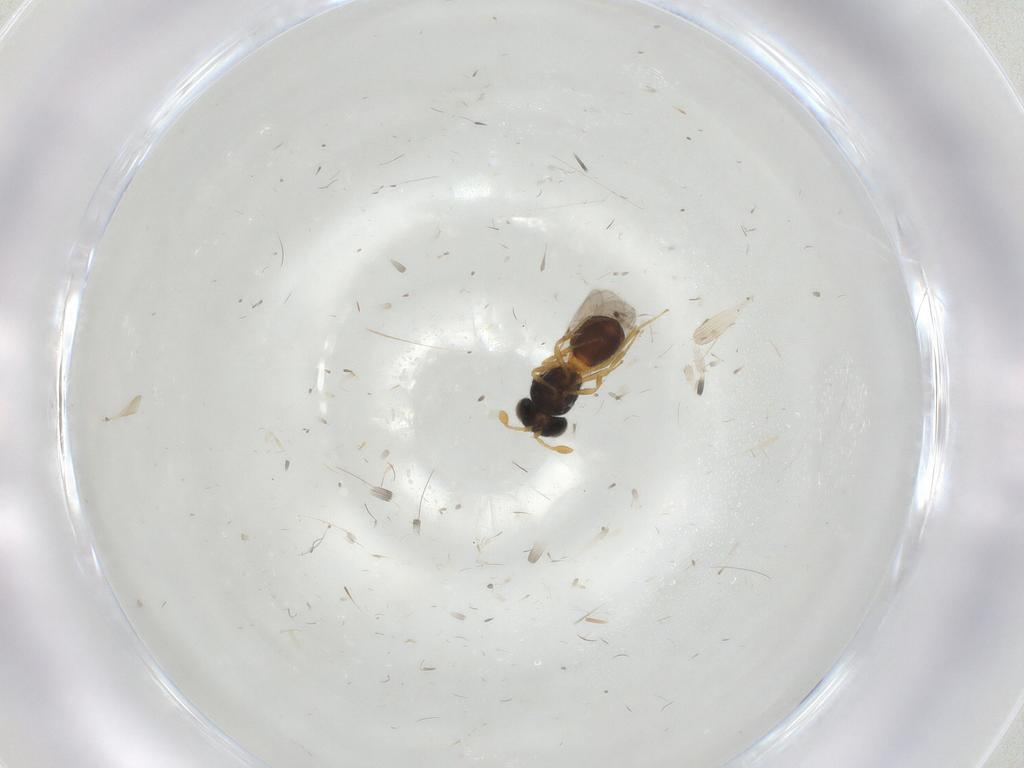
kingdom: Animalia
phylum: Arthropoda
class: Insecta
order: Hymenoptera
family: Scelionidae
